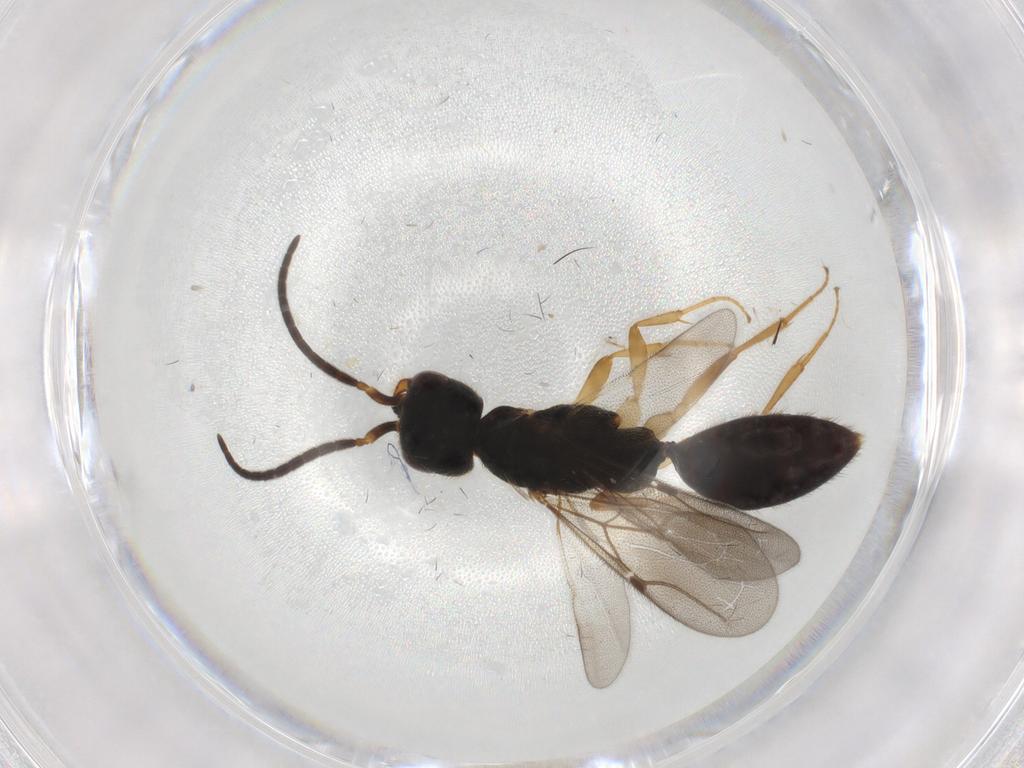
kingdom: Animalia
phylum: Arthropoda
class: Insecta
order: Hymenoptera
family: Bethylidae
